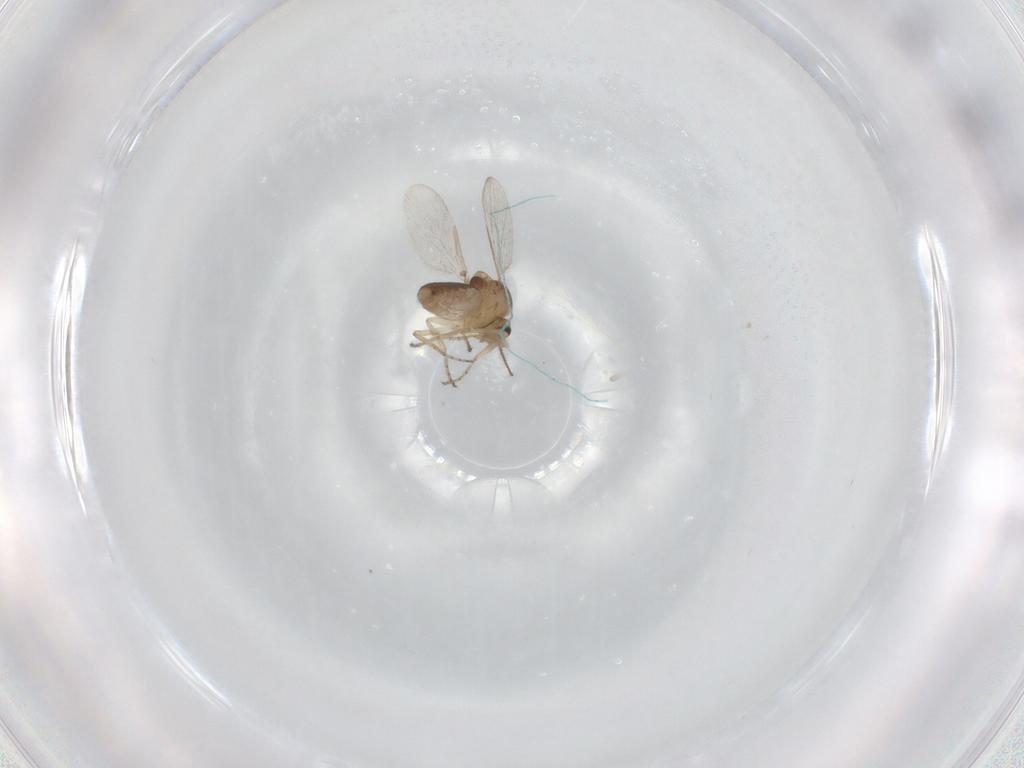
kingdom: Animalia
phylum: Arthropoda
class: Insecta
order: Diptera
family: Ceratopogonidae
